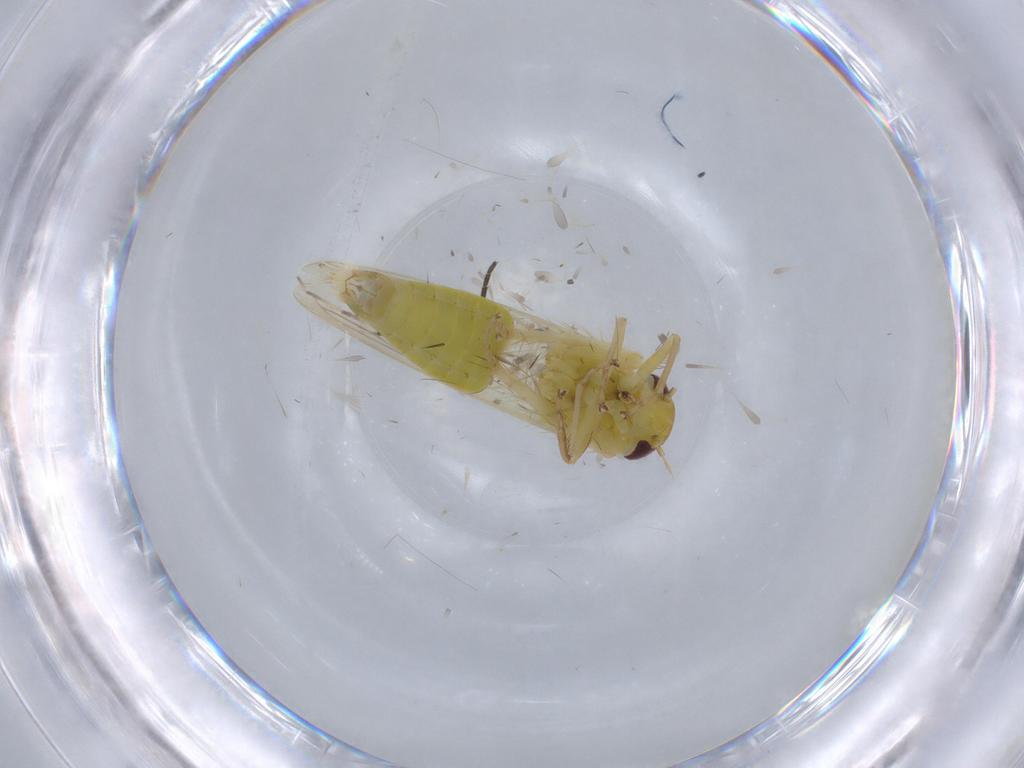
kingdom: Animalia
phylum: Arthropoda
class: Insecta
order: Hemiptera
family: Cicadellidae
